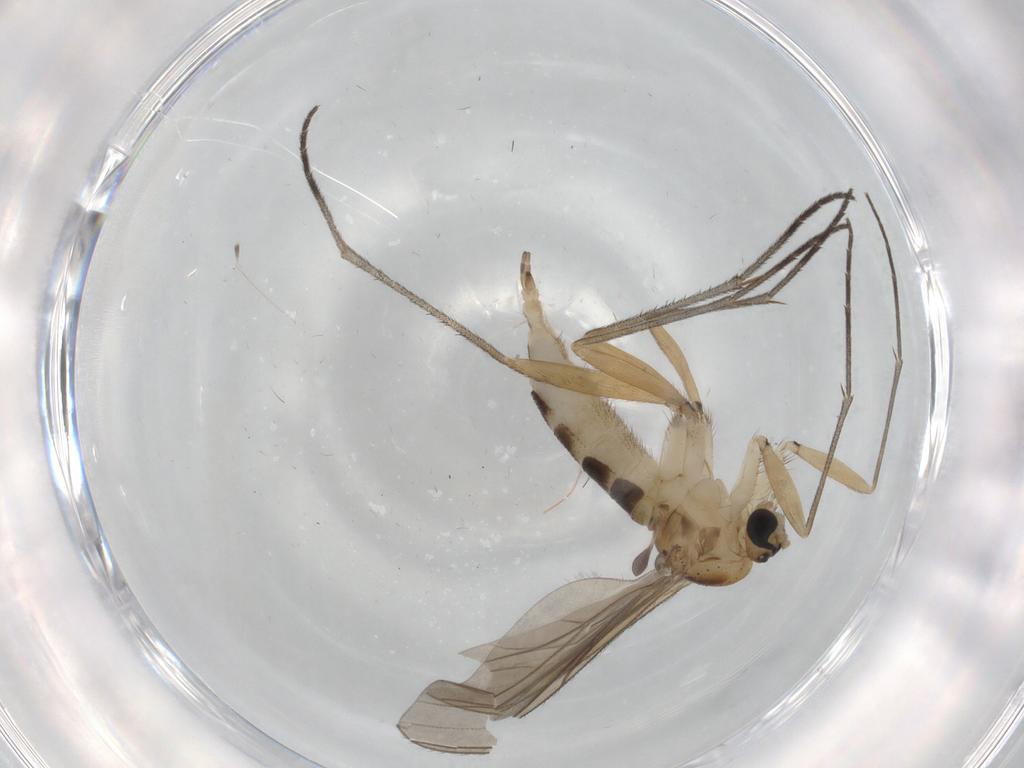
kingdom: Animalia
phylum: Arthropoda
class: Insecta
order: Diptera
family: Sciaridae
